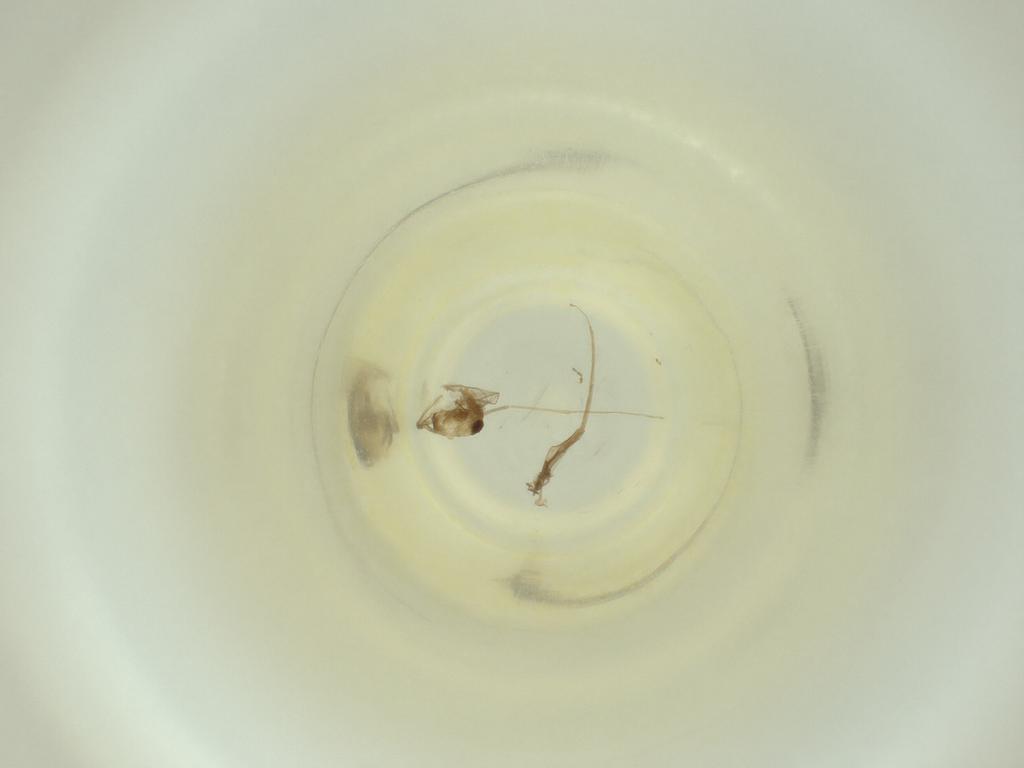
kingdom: Animalia
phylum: Arthropoda
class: Insecta
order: Diptera
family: Cecidomyiidae
